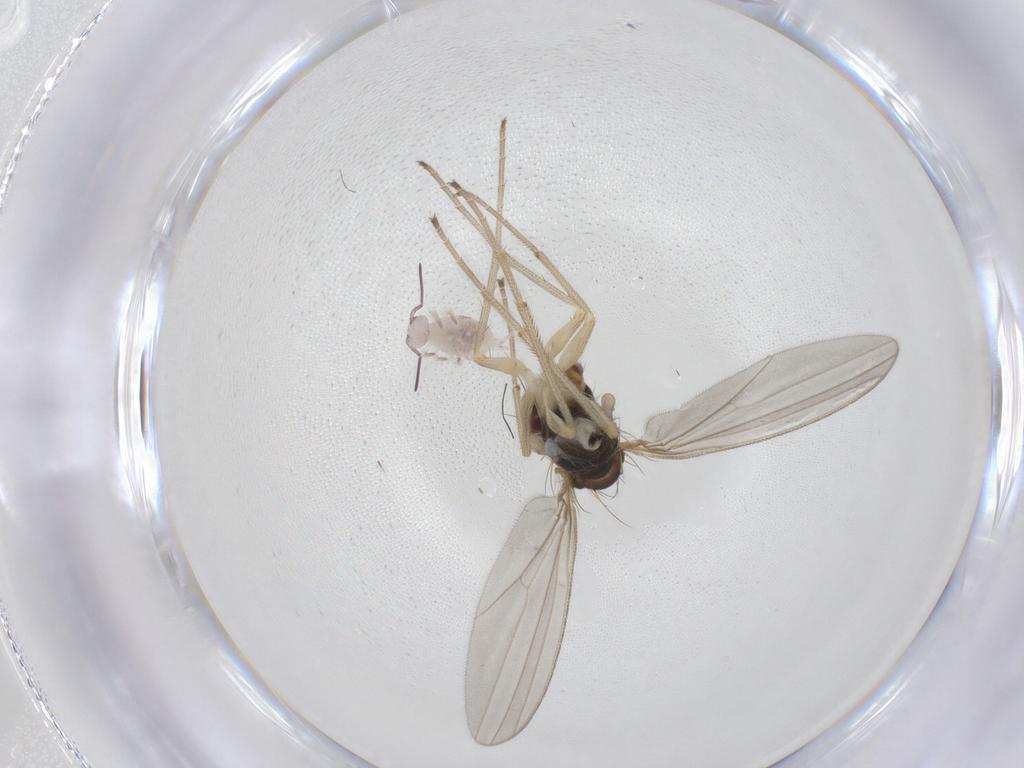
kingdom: Animalia
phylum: Arthropoda
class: Insecta
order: Diptera
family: Dolichopodidae
